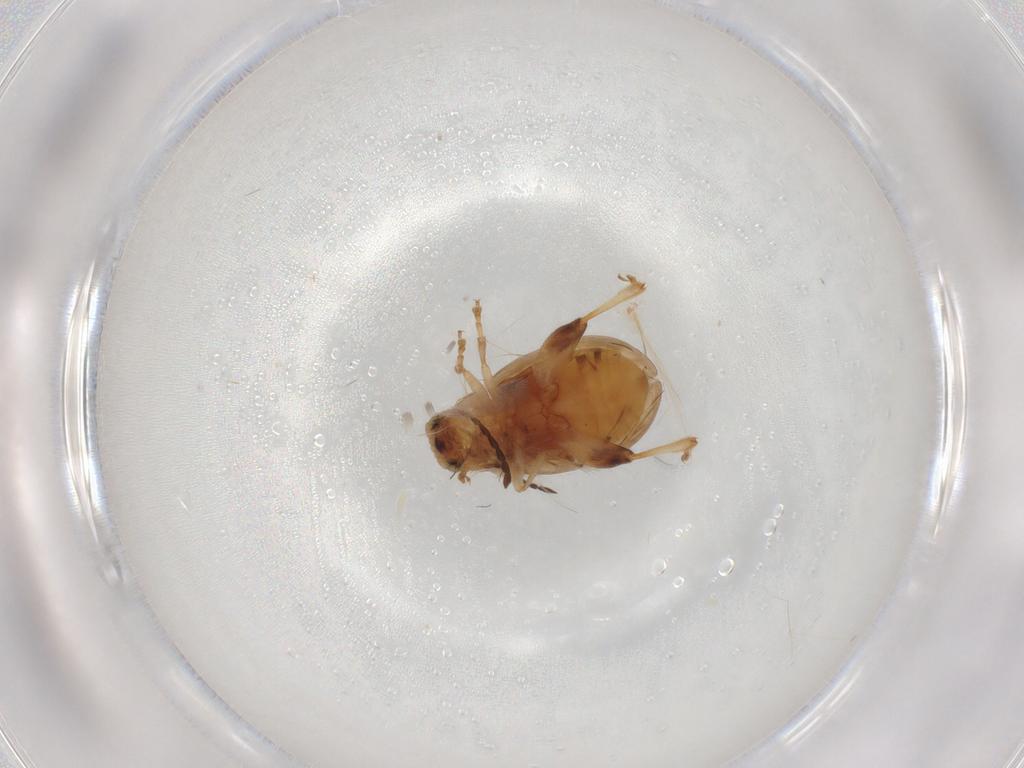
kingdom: Animalia
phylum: Arthropoda
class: Insecta
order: Coleoptera
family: Chrysomelidae
